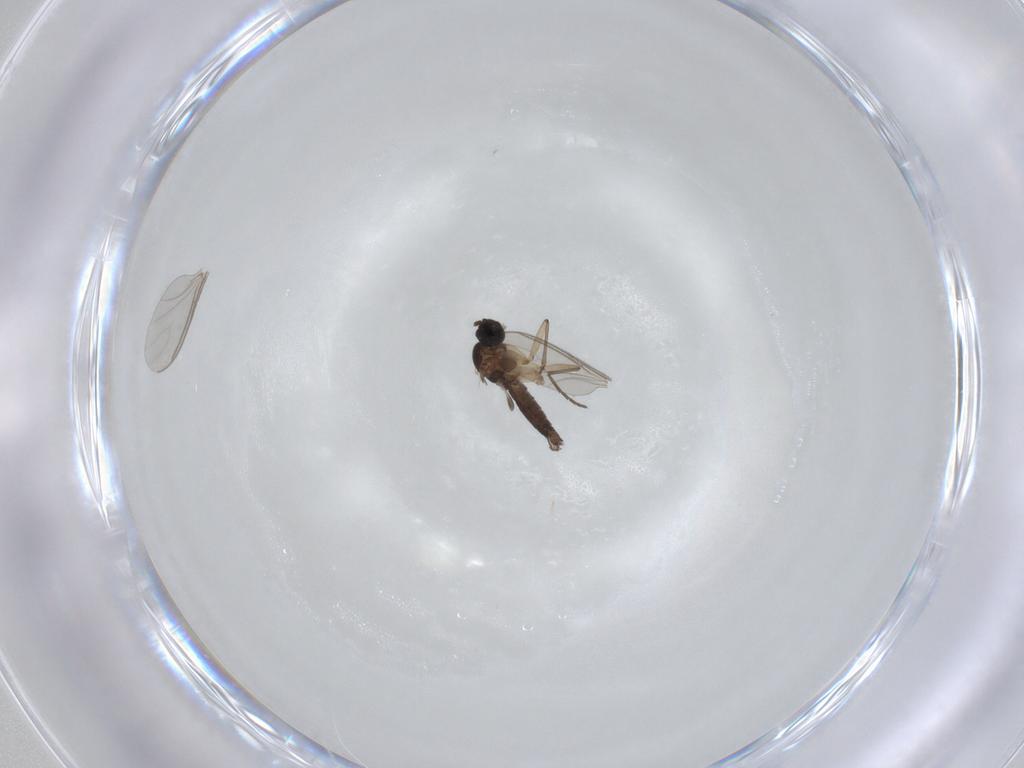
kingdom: Animalia
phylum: Arthropoda
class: Insecta
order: Diptera
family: Sciaridae
